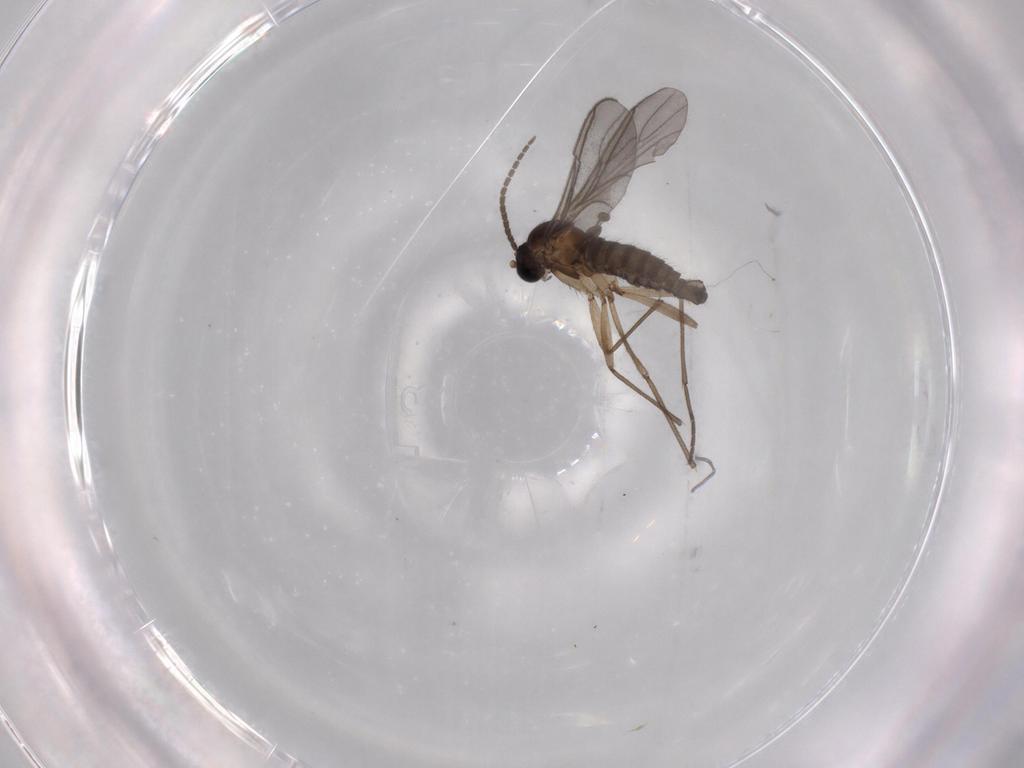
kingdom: Animalia
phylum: Arthropoda
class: Insecta
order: Diptera
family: Sciaridae
